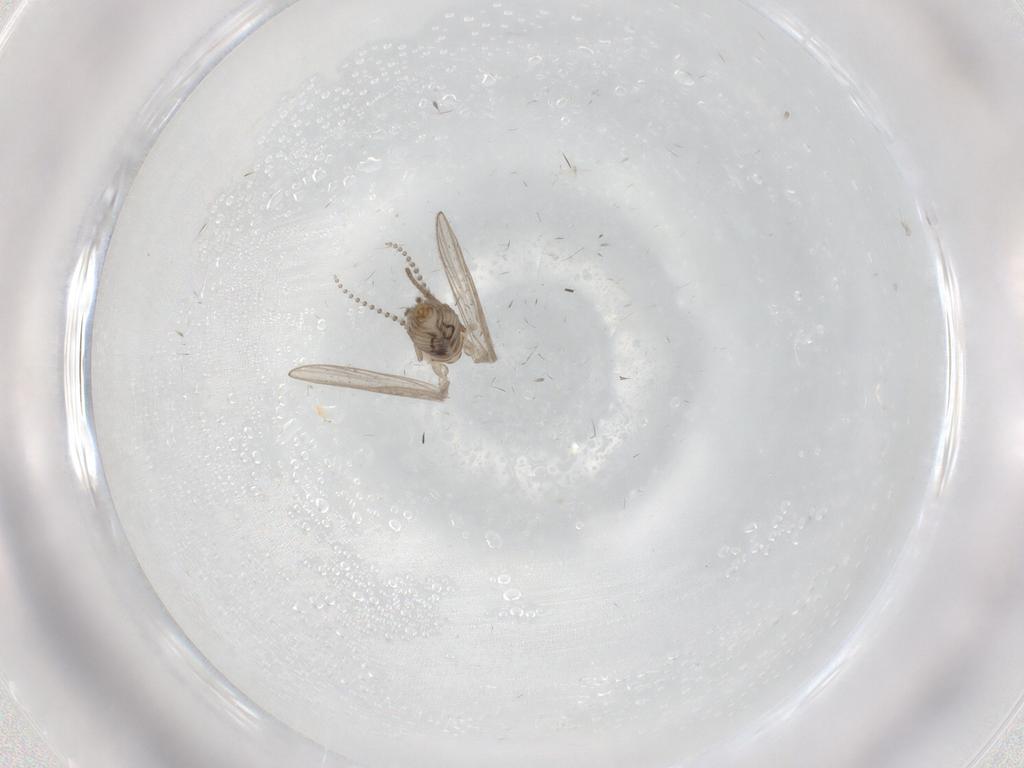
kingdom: Animalia
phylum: Arthropoda
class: Insecta
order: Diptera
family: Psychodidae
